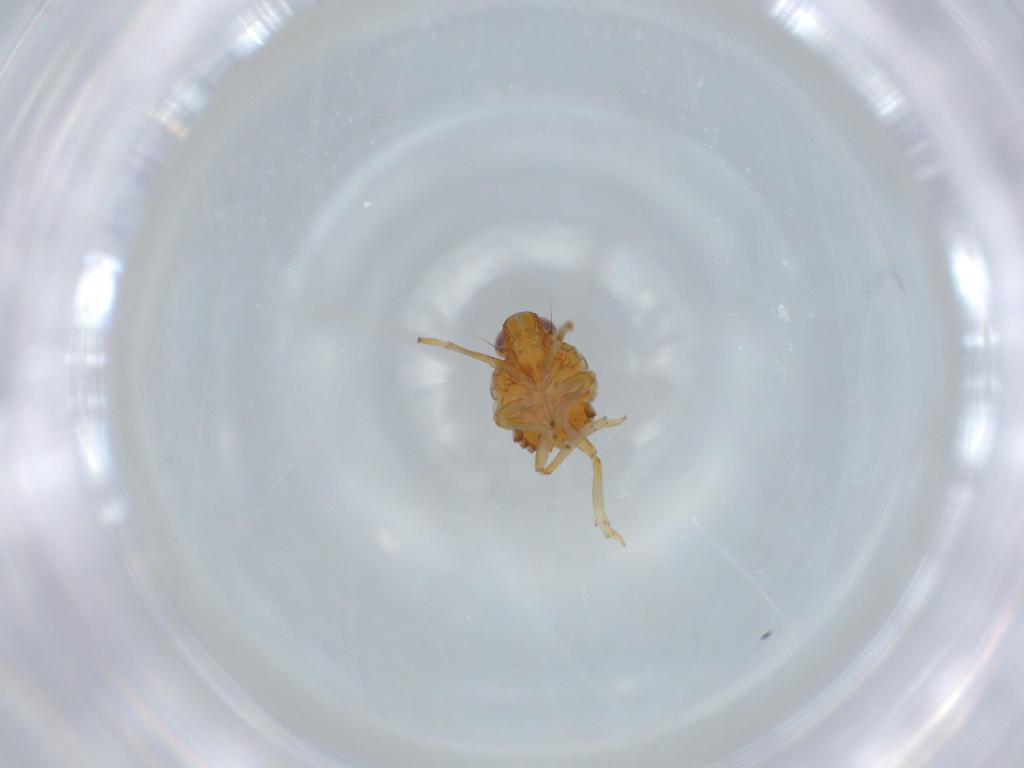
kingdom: Animalia
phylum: Arthropoda
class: Insecta
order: Hemiptera
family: Issidae
